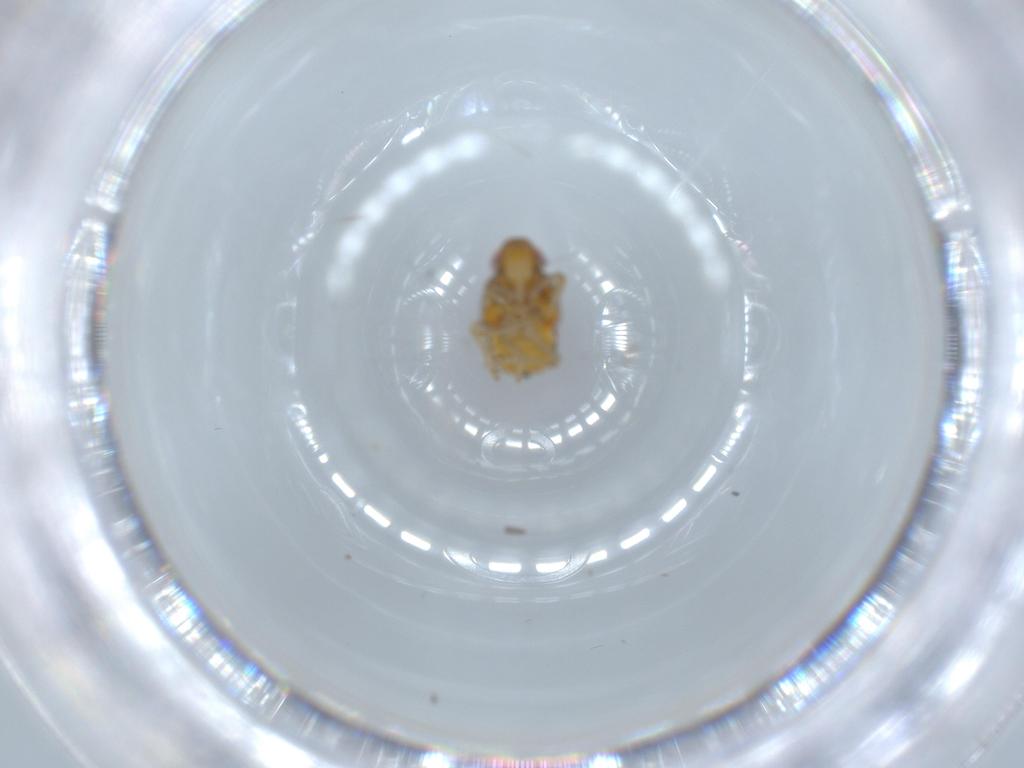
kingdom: Animalia
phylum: Arthropoda
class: Insecta
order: Hemiptera
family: Issidae
